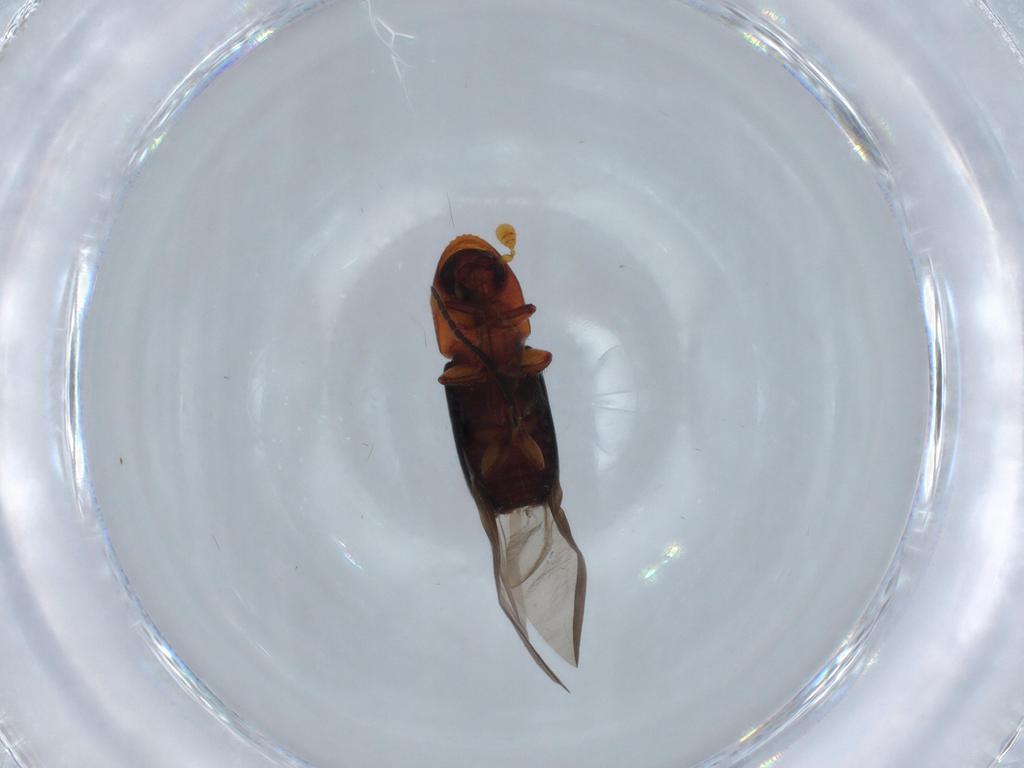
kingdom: Animalia
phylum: Arthropoda
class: Insecta
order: Coleoptera
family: Curculionidae
